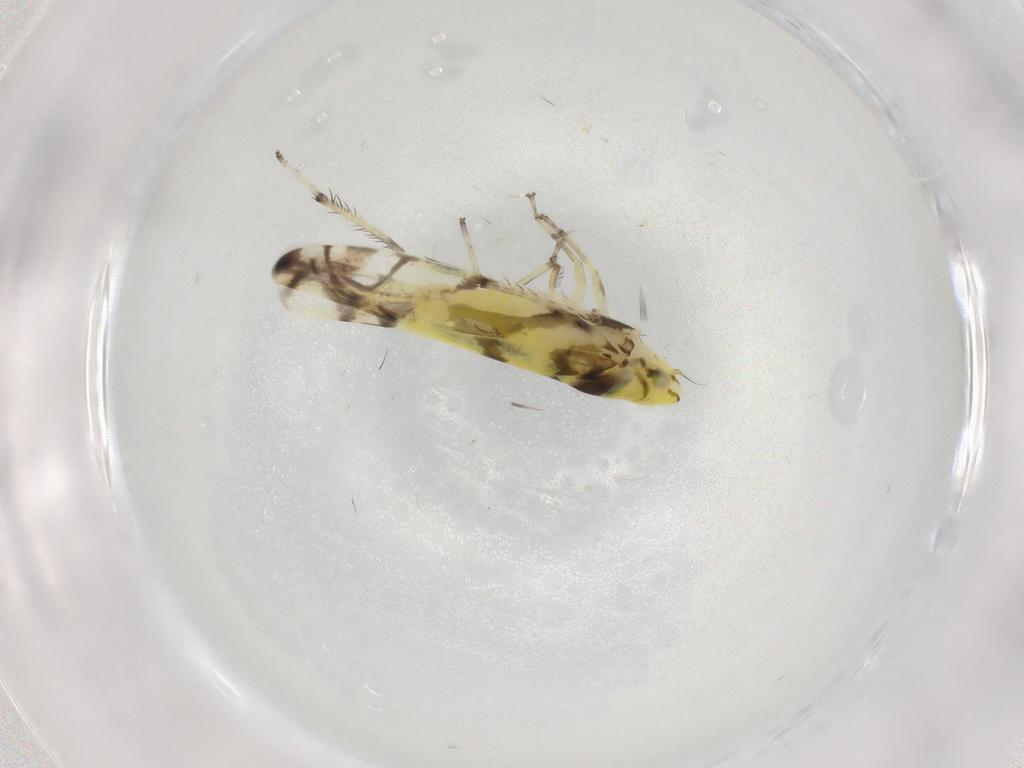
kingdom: Animalia
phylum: Arthropoda
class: Insecta
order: Hemiptera
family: Cicadellidae
